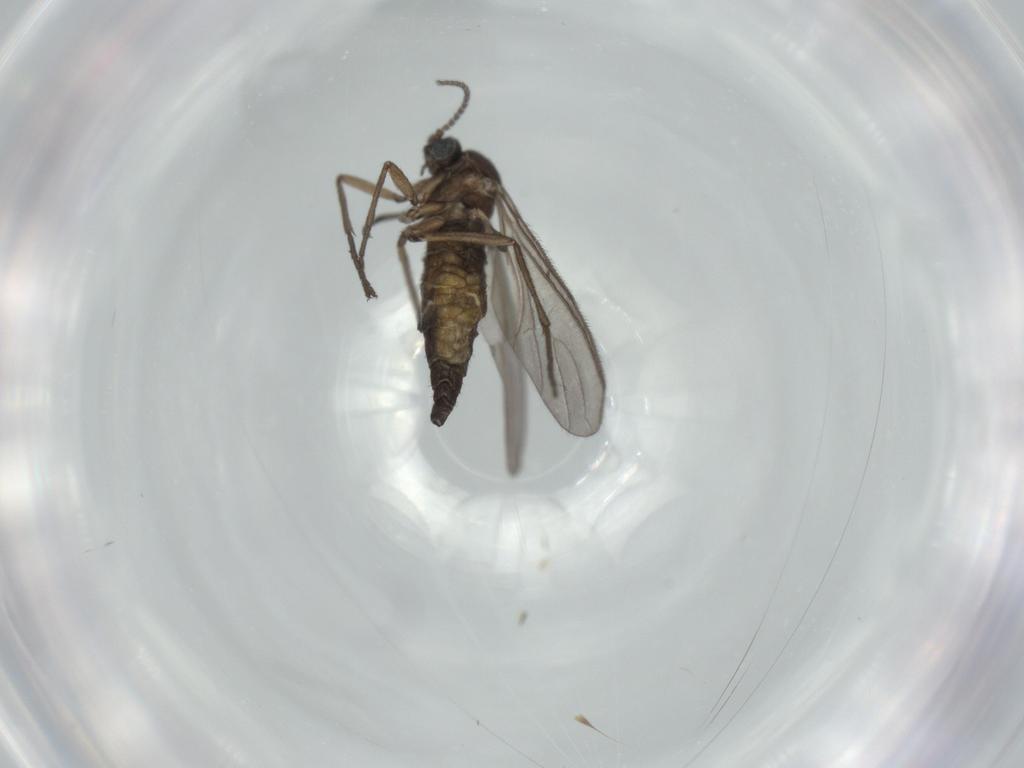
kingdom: Animalia
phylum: Arthropoda
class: Insecta
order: Diptera
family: Sciaridae
